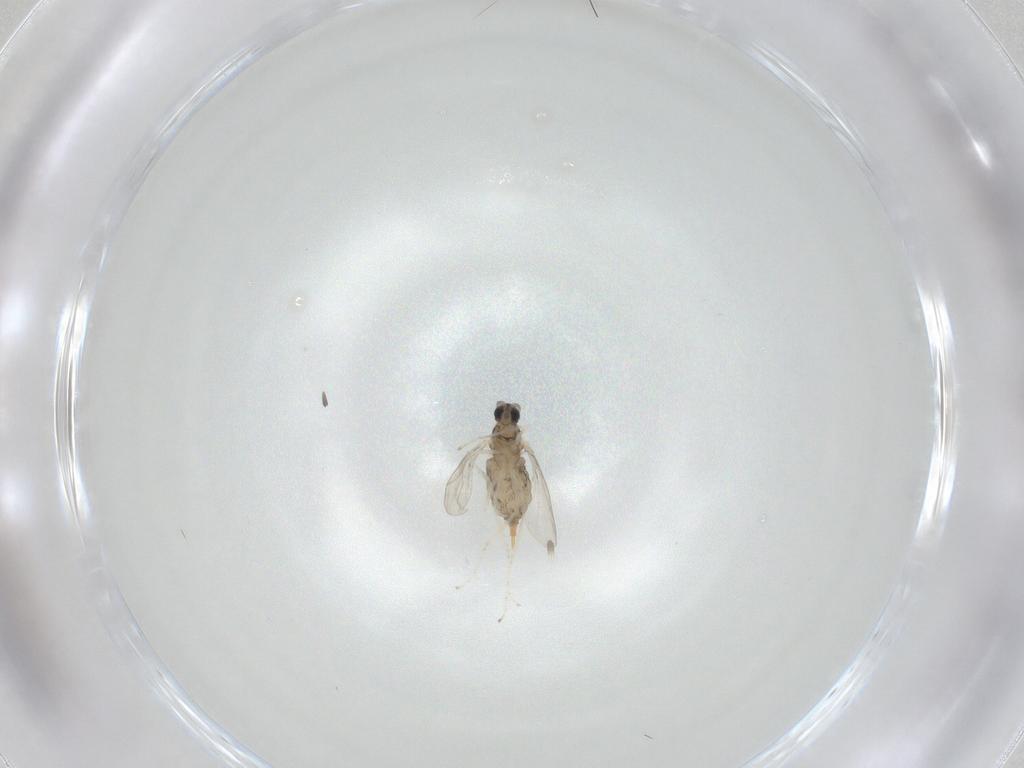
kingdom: Animalia
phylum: Arthropoda
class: Insecta
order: Diptera
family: Cecidomyiidae
